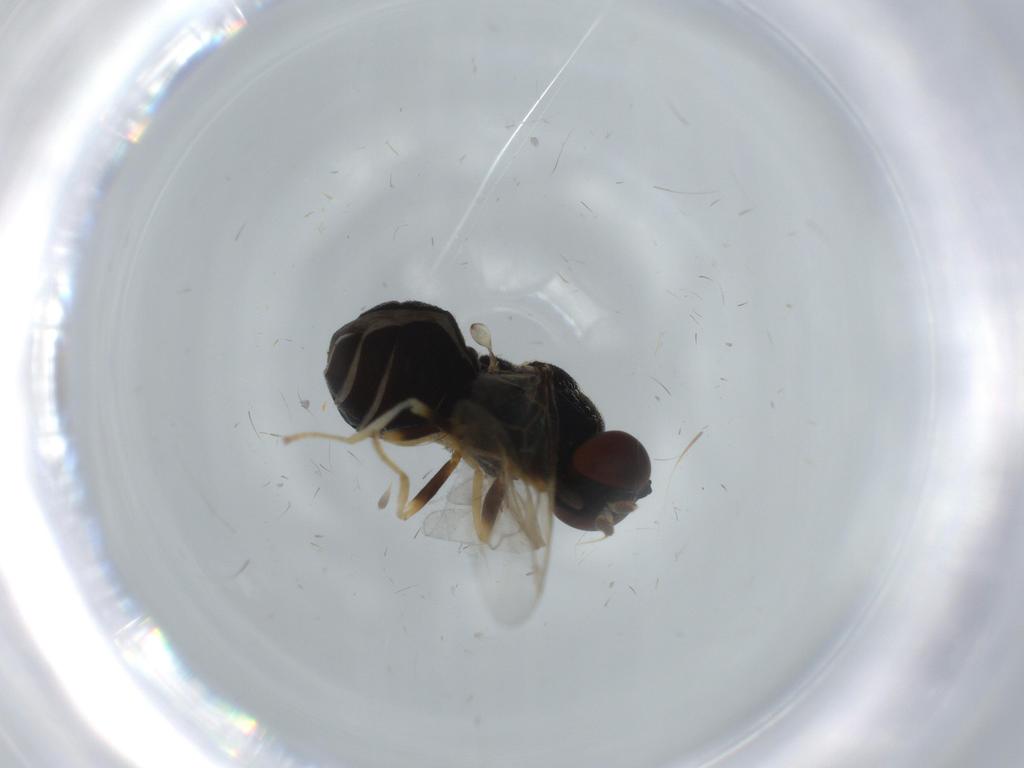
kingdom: Animalia
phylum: Arthropoda
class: Insecta
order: Diptera
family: Stratiomyidae
